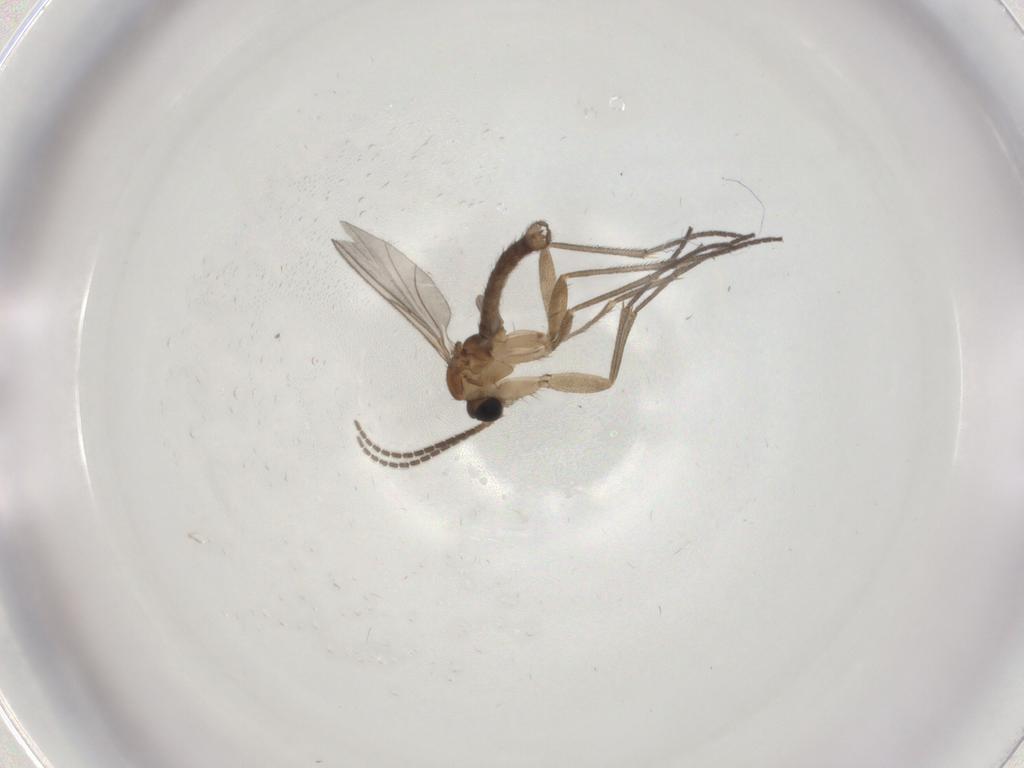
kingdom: Animalia
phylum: Arthropoda
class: Insecta
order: Diptera
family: Sciaridae
